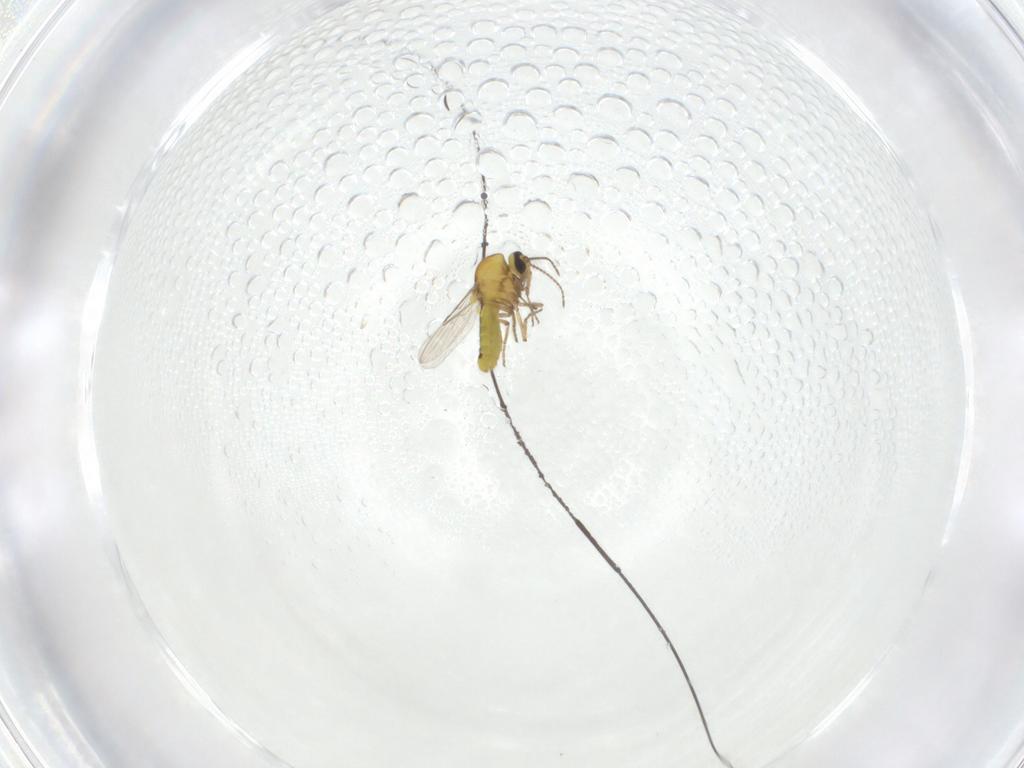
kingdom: Animalia
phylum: Arthropoda
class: Insecta
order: Diptera
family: Ceratopogonidae
